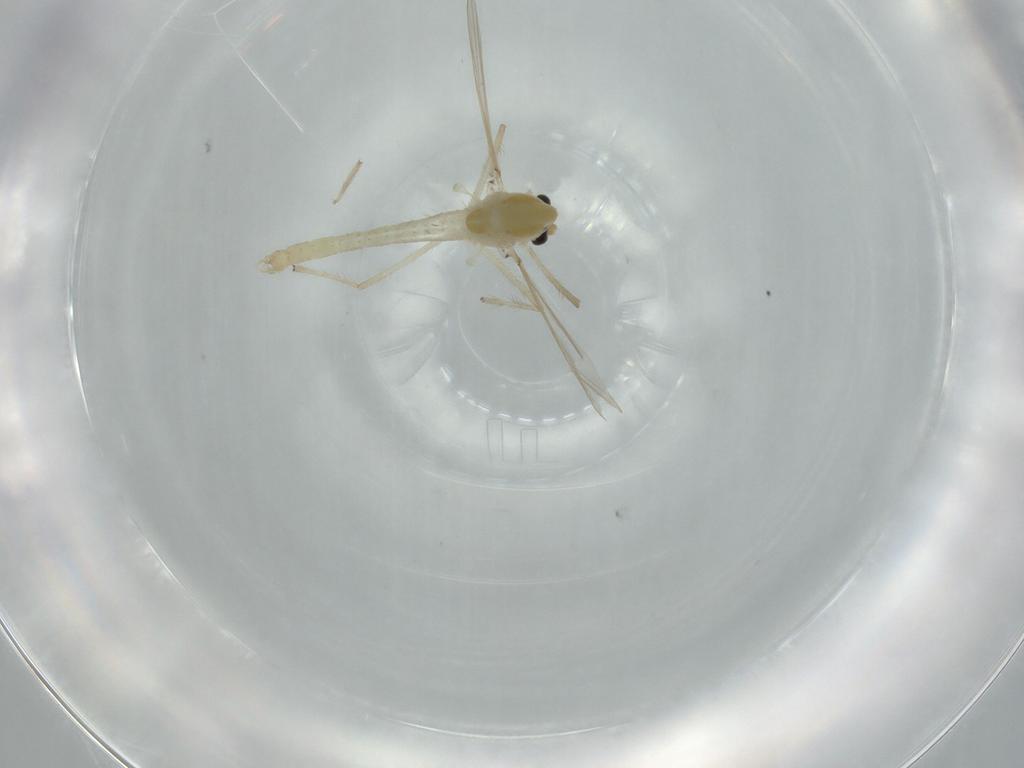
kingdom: Animalia
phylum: Arthropoda
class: Insecta
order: Diptera
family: Chironomidae
